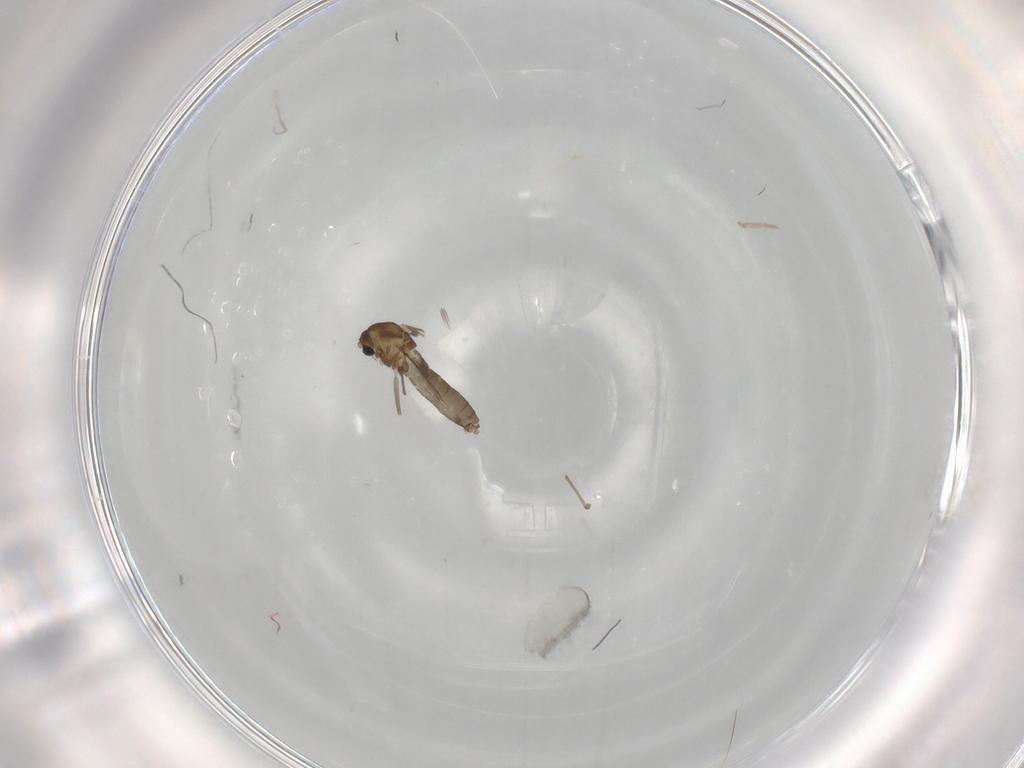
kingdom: Animalia
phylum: Arthropoda
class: Insecta
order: Diptera
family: Chironomidae
